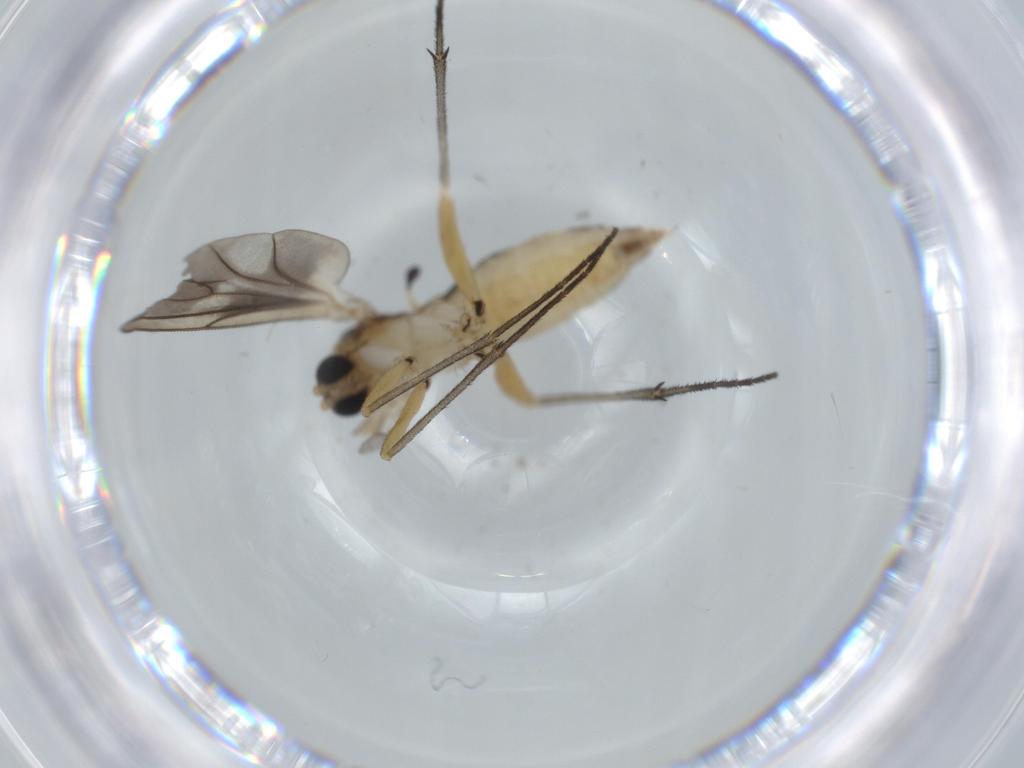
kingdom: Animalia
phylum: Arthropoda
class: Insecta
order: Diptera
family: Sciaridae
